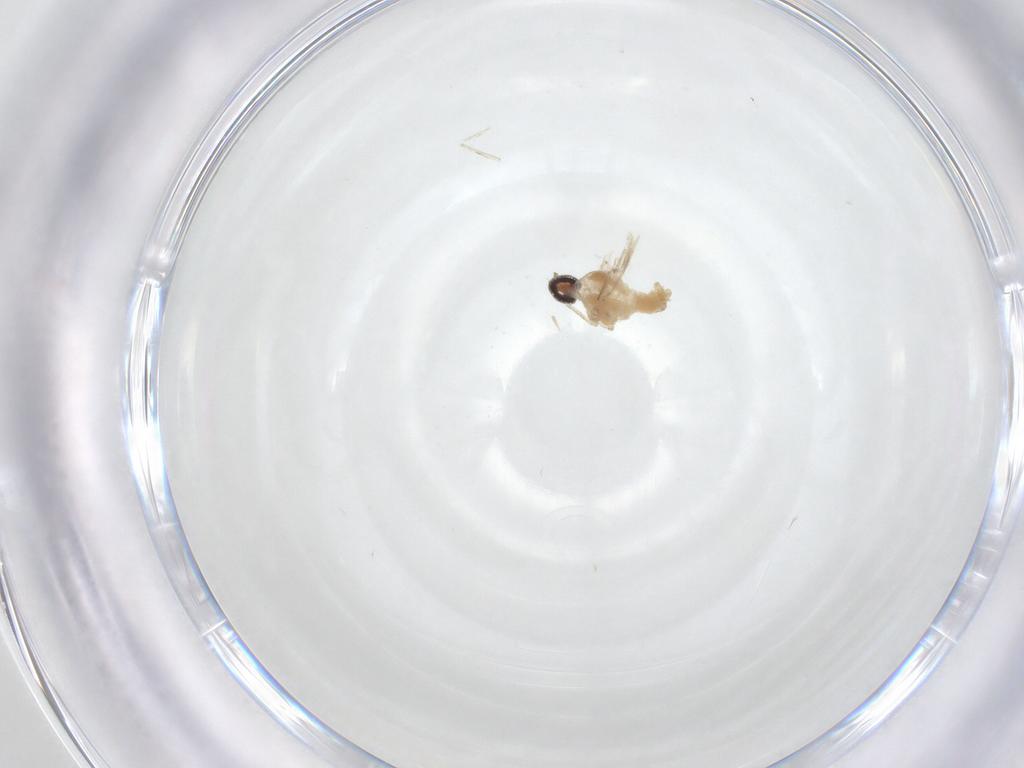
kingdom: Animalia
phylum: Arthropoda
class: Insecta
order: Diptera
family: Cecidomyiidae
